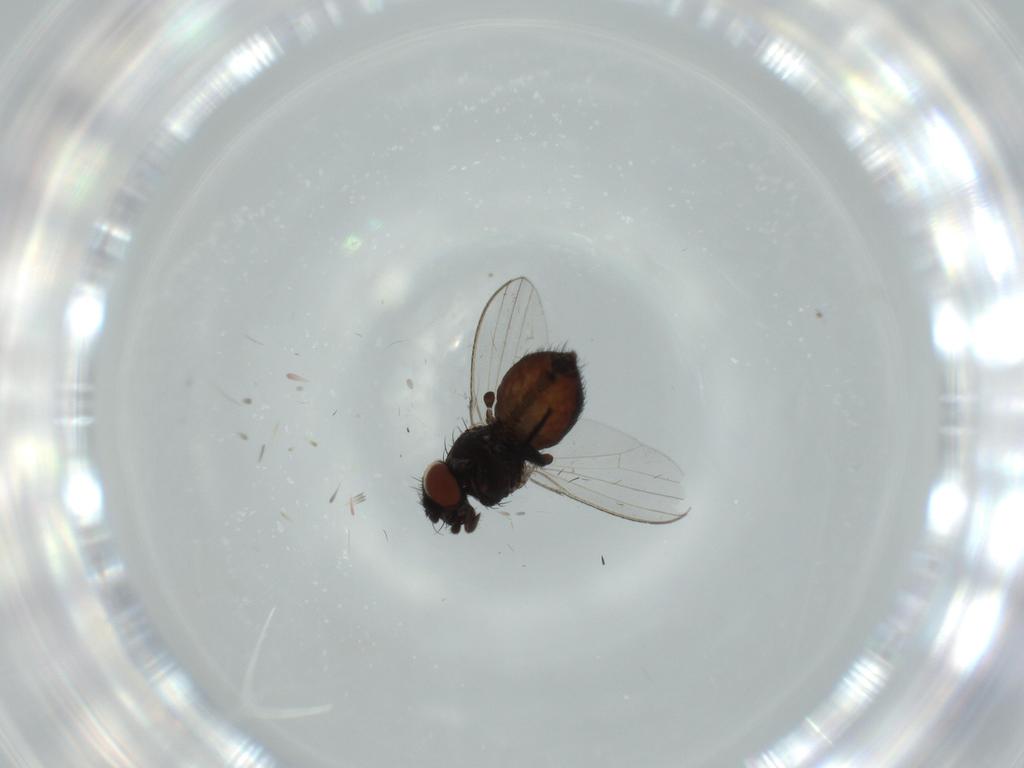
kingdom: Animalia
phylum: Arthropoda
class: Insecta
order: Diptera
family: Milichiidae
